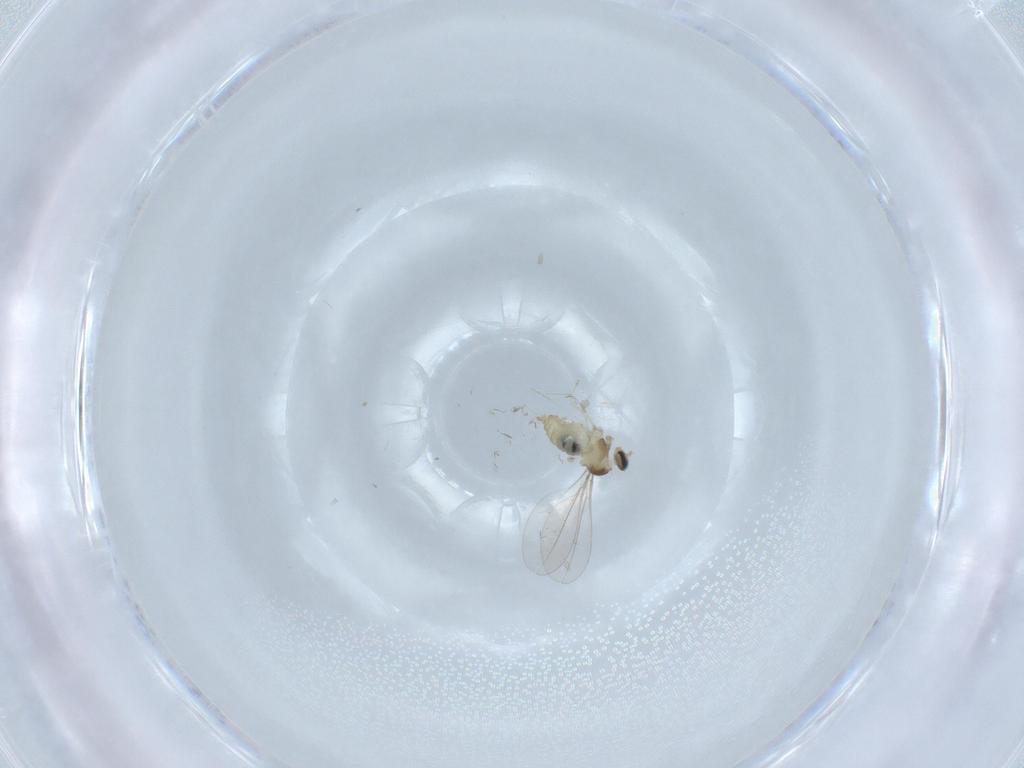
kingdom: Animalia
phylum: Arthropoda
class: Insecta
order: Diptera
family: Cecidomyiidae
